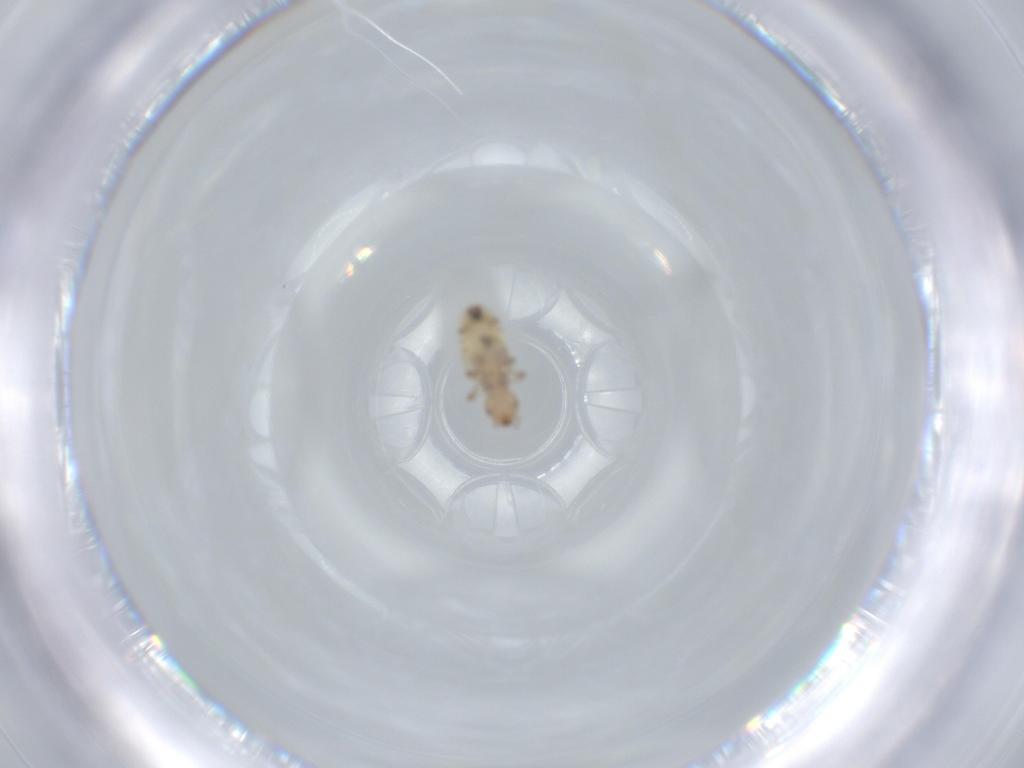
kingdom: Animalia
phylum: Arthropoda
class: Insecta
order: Psocodea
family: Liposcelididae
